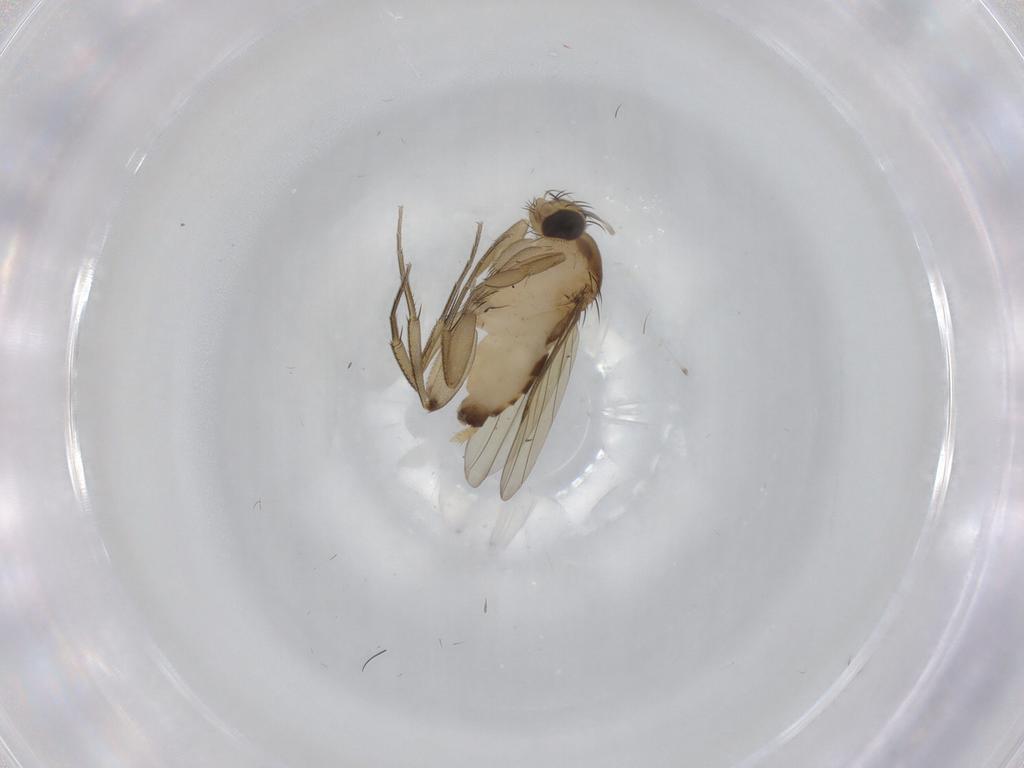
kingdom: Animalia
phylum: Arthropoda
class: Insecta
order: Diptera
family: Phoridae
